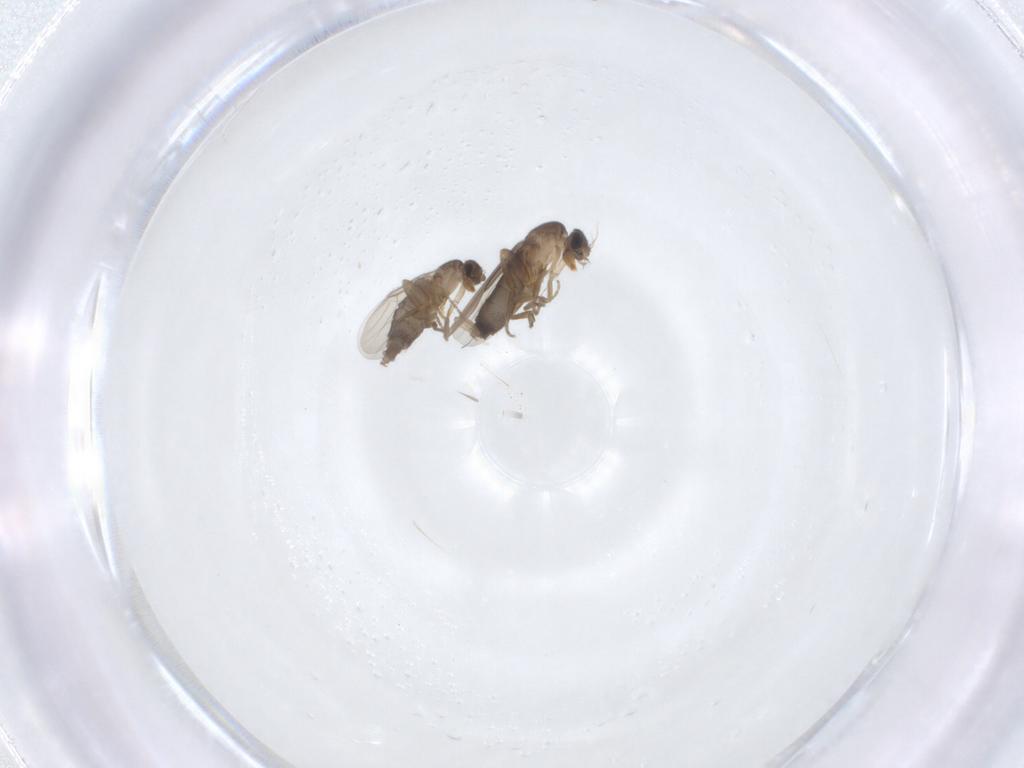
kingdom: Animalia
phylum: Arthropoda
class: Insecta
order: Diptera
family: Phoridae
